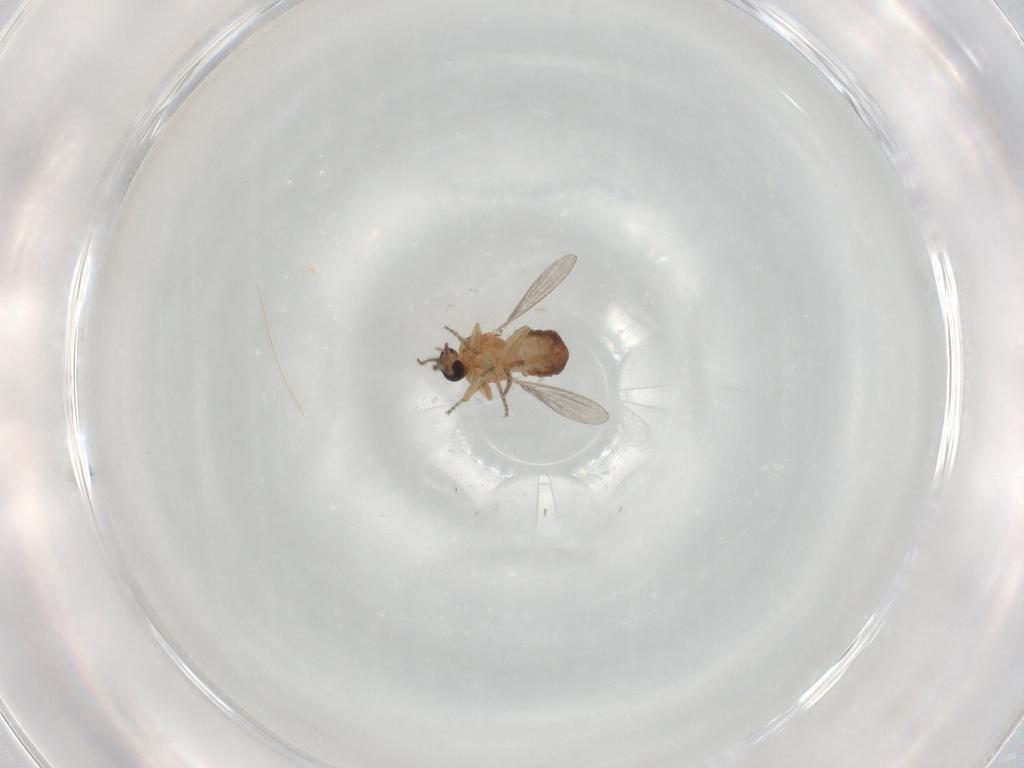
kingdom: Animalia
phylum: Arthropoda
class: Insecta
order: Diptera
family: Ceratopogonidae
